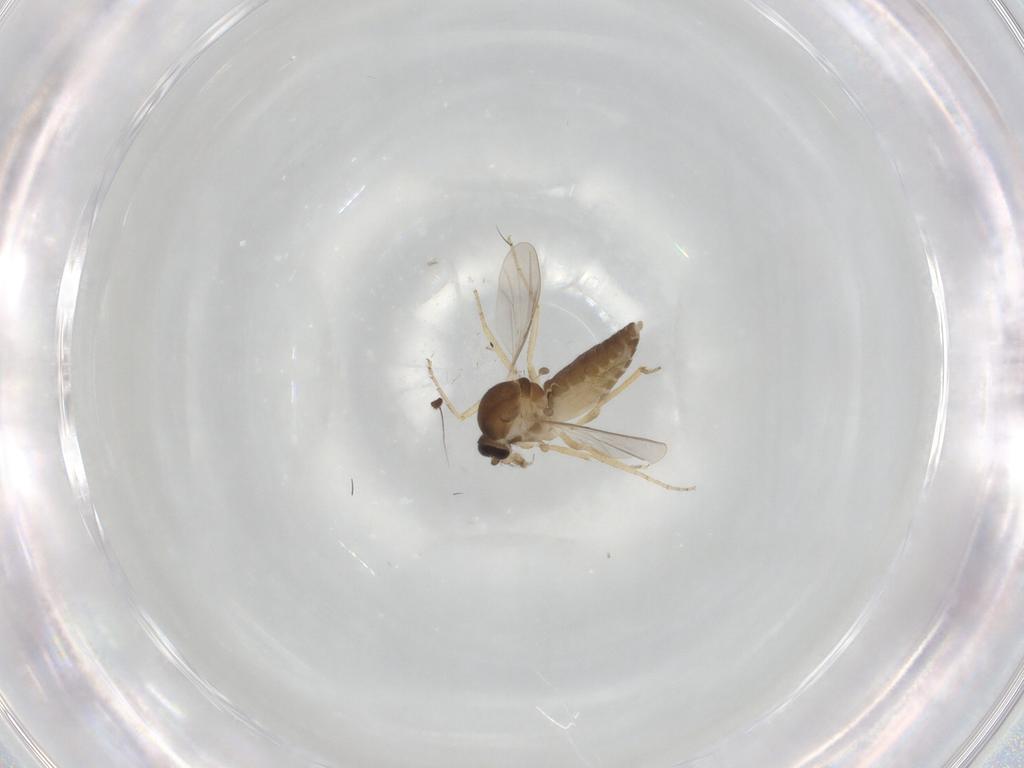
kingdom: Animalia
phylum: Arthropoda
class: Insecta
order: Diptera
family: Ceratopogonidae
